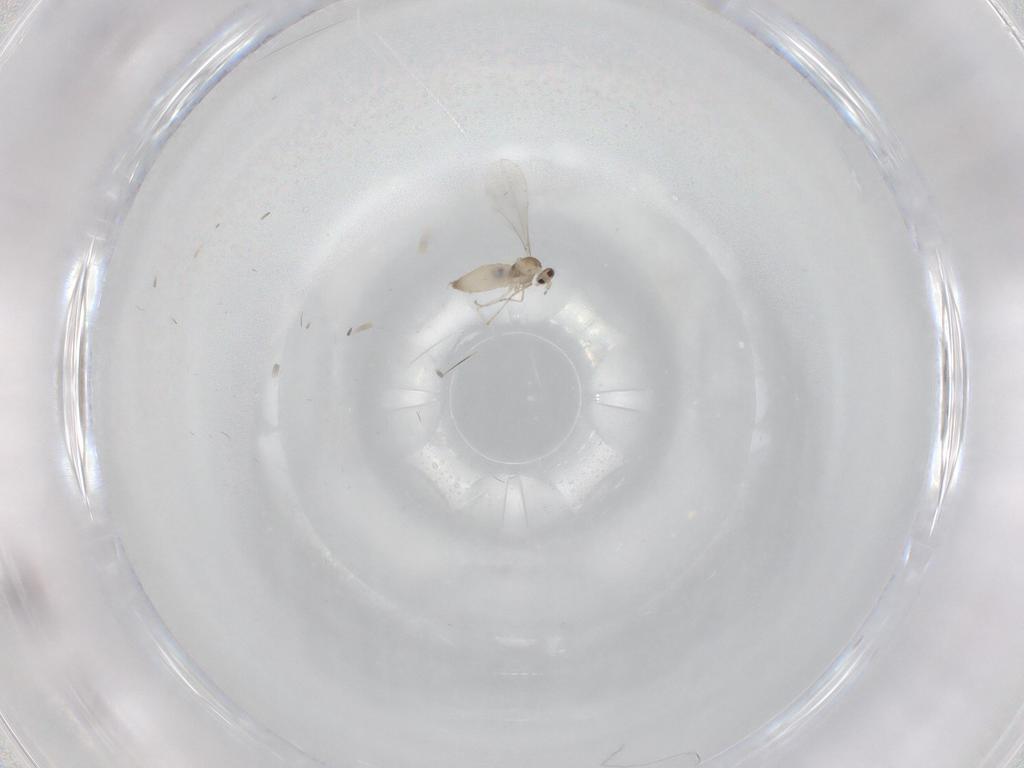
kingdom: Animalia
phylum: Arthropoda
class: Insecta
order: Diptera
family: Cecidomyiidae
